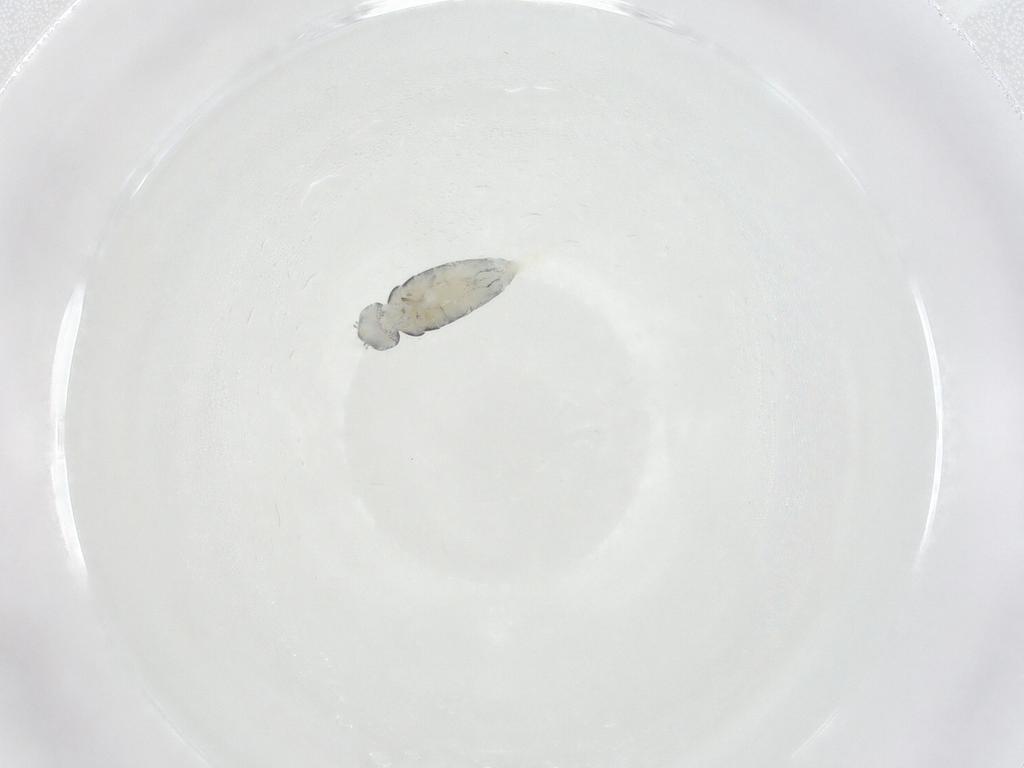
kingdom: Animalia
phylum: Arthropoda
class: Collembola
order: Entomobryomorpha
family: Entomobryidae
